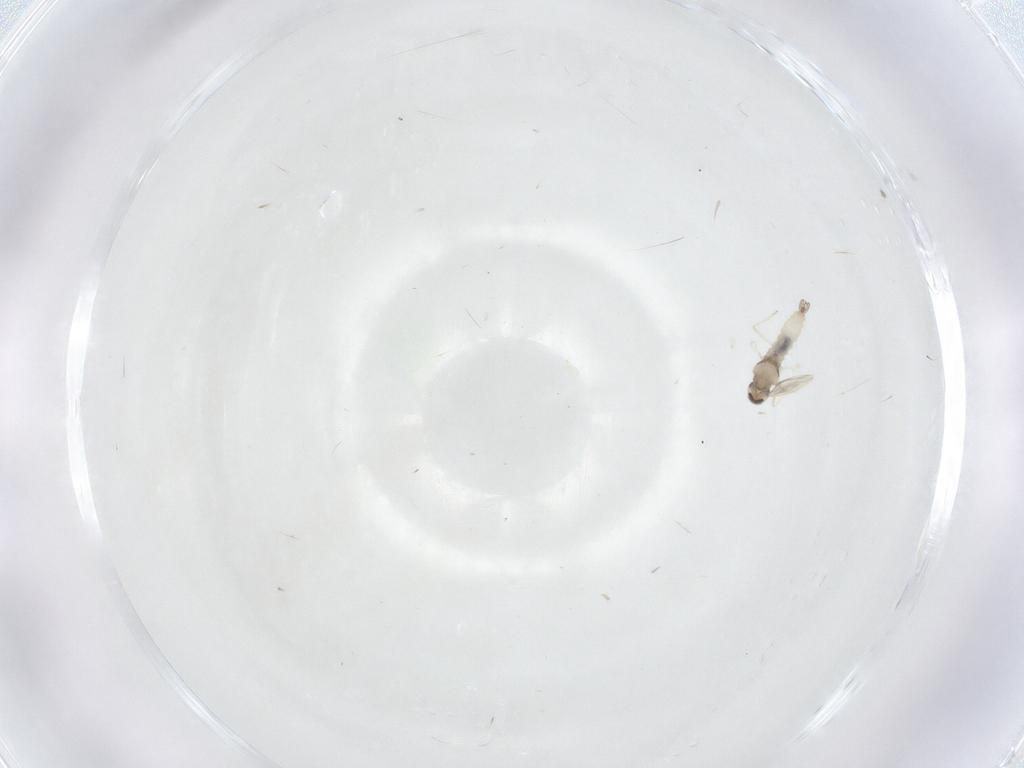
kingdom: Animalia
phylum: Arthropoda
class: Insecta
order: Diptera
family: Cecidomyiidae
